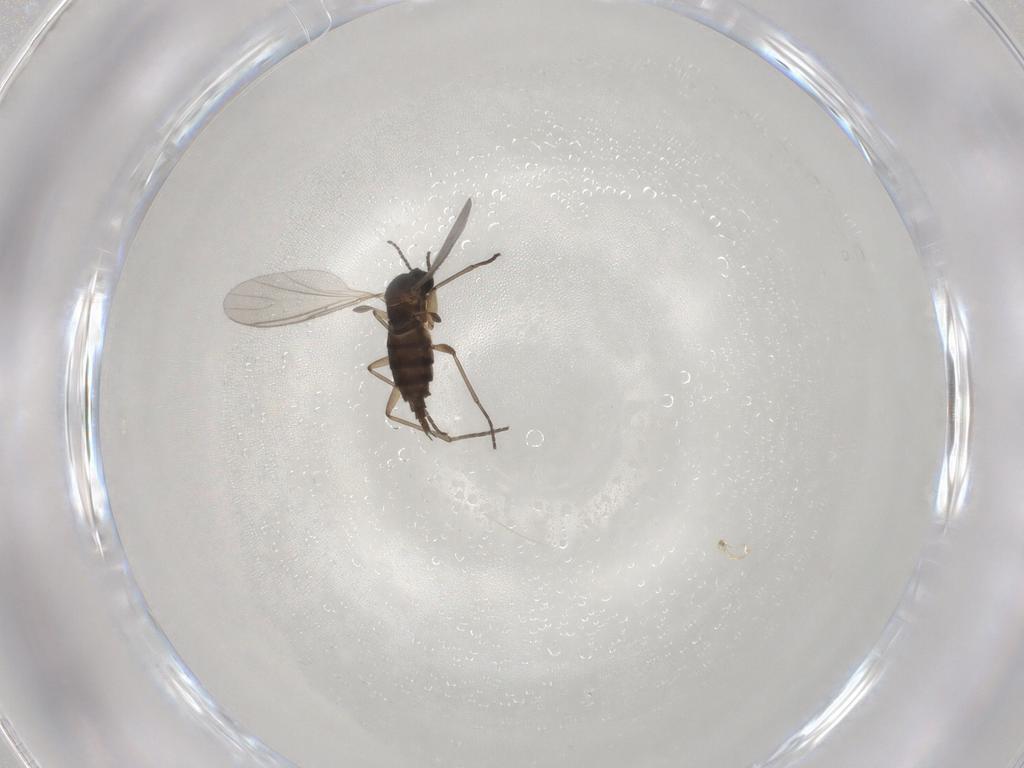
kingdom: Animalia
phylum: Arthropoda
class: Insecta
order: Diptera
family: Sciaridae
